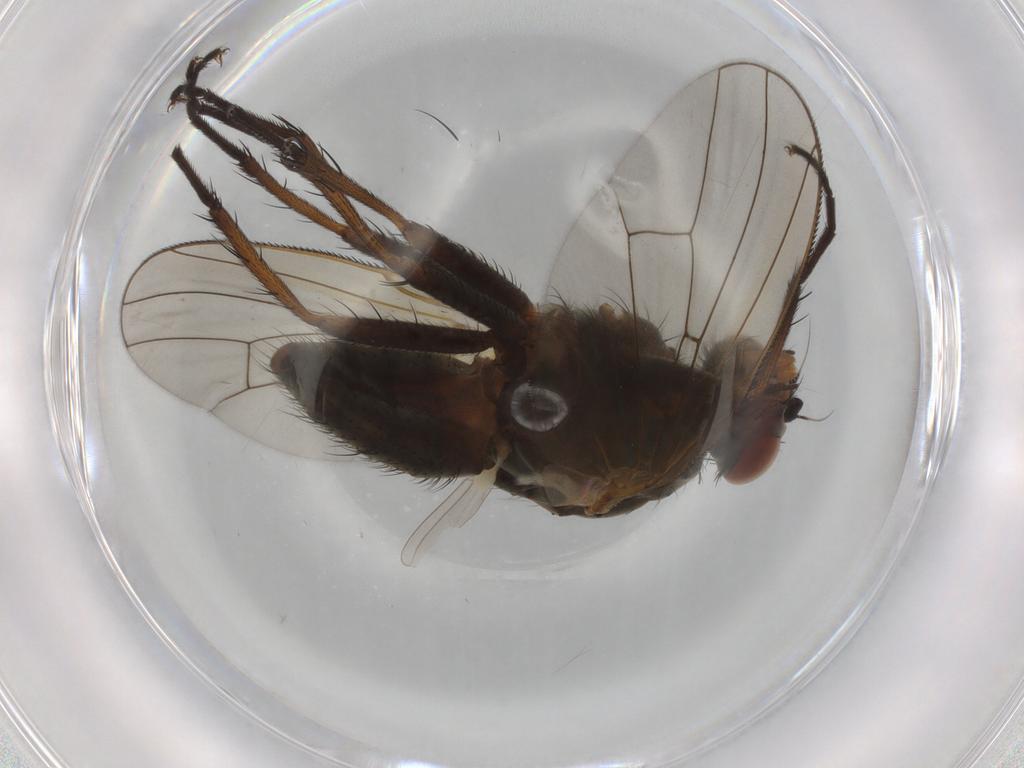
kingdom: Animalia
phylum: Arthropoda
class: Insecta
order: Diptera
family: Anthomyiidae
